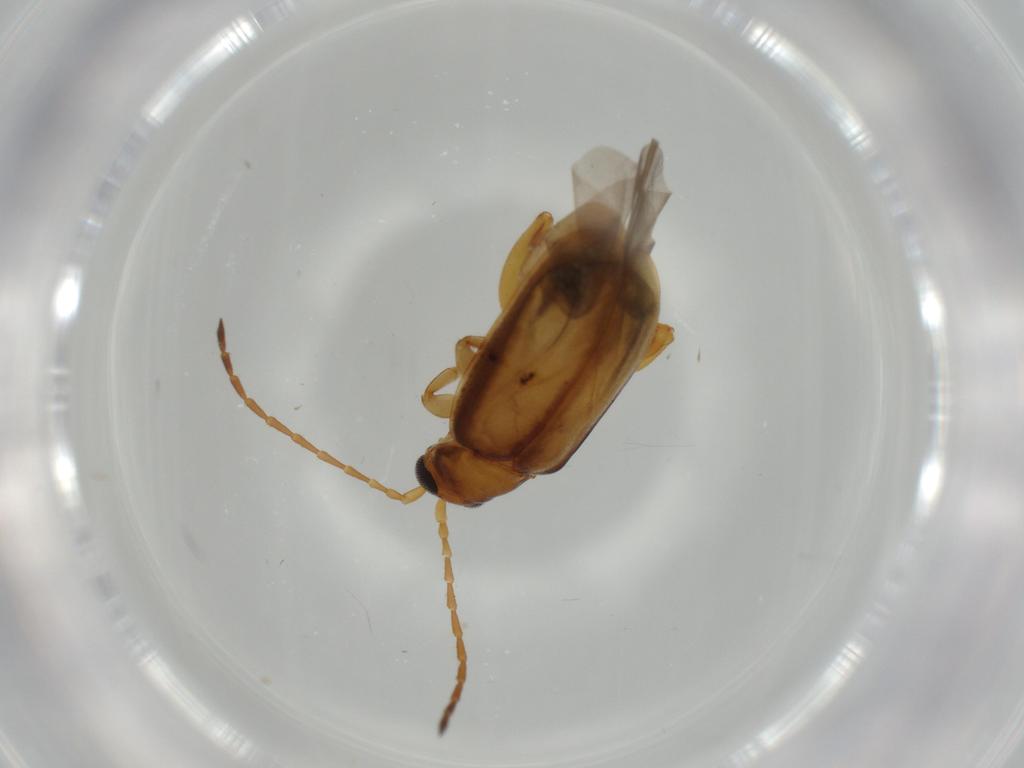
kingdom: Animalia
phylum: Arthropoda
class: Insecta
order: Coleoptera
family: Chrysomelidae
